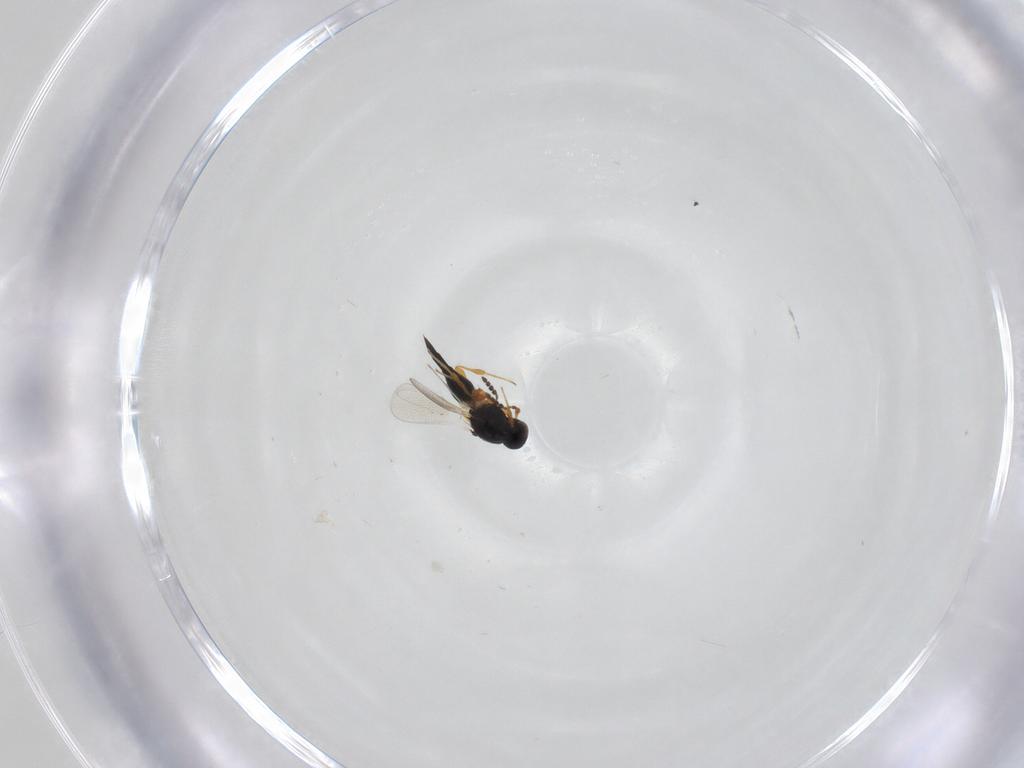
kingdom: Animalia
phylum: Arthropoda
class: Insecta
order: Hymenoptera
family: Platygastridae
